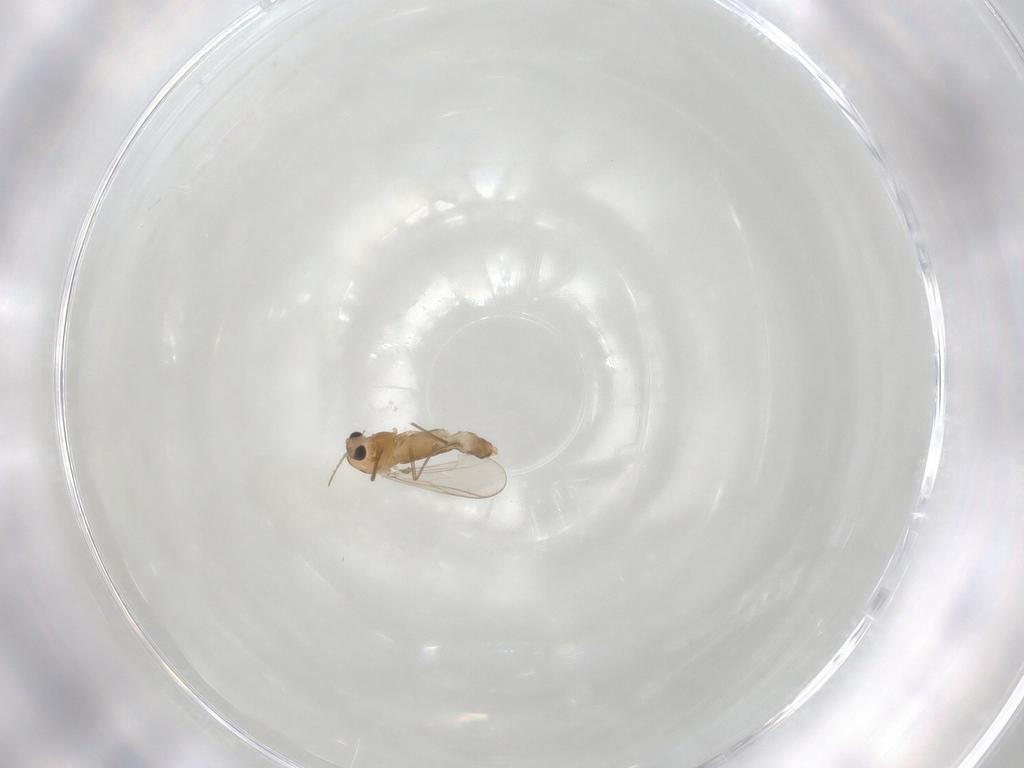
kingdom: Animalia
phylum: Arthropoda
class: Insecta
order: Diptera
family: Chironomidae
